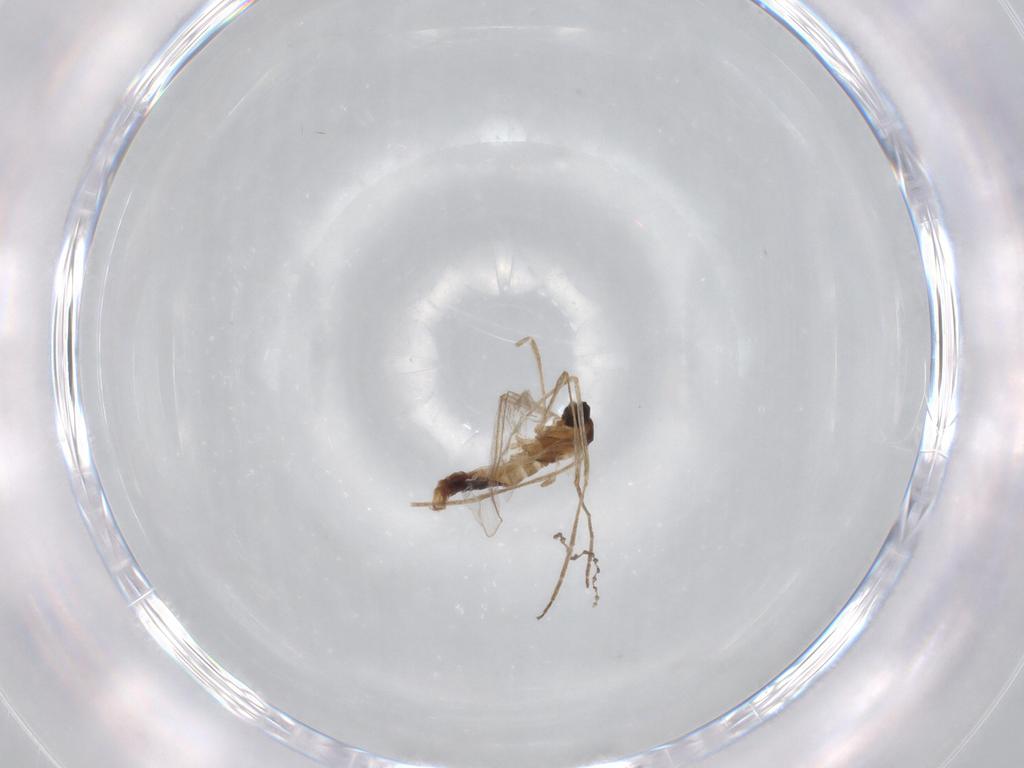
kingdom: Animalia
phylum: Arthropoda
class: Insecta
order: Diptera
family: Cecidomyiidae
